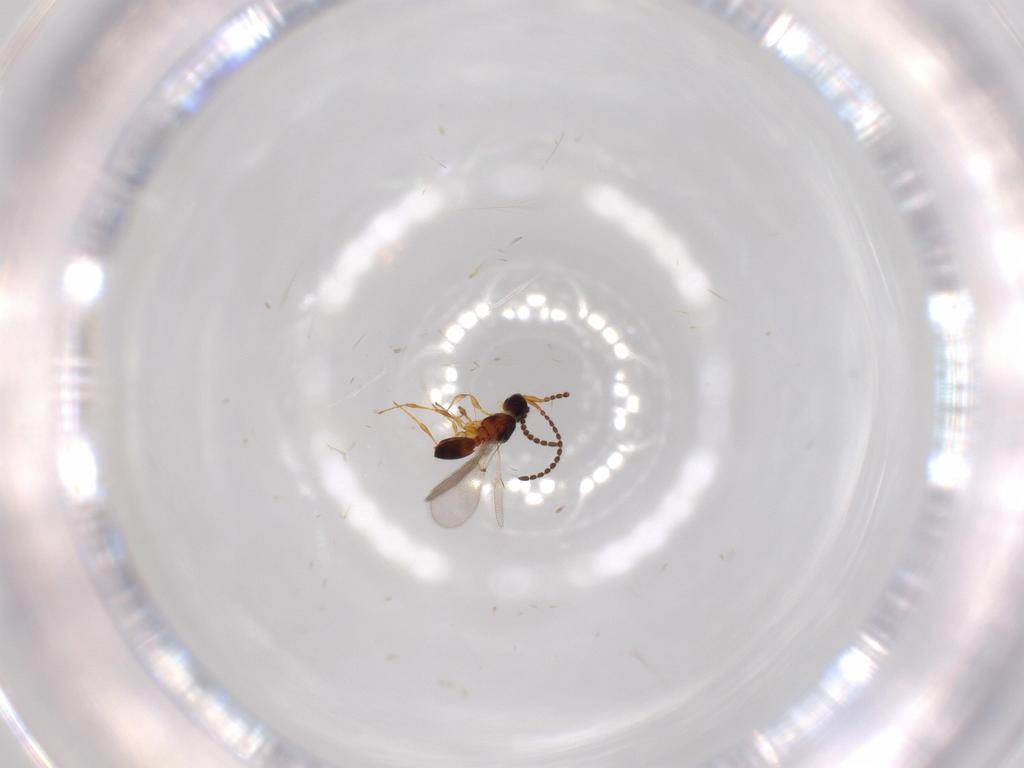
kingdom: Animalia
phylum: Arthropoda
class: Insecta
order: Hymenoptera
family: Diapriidae
